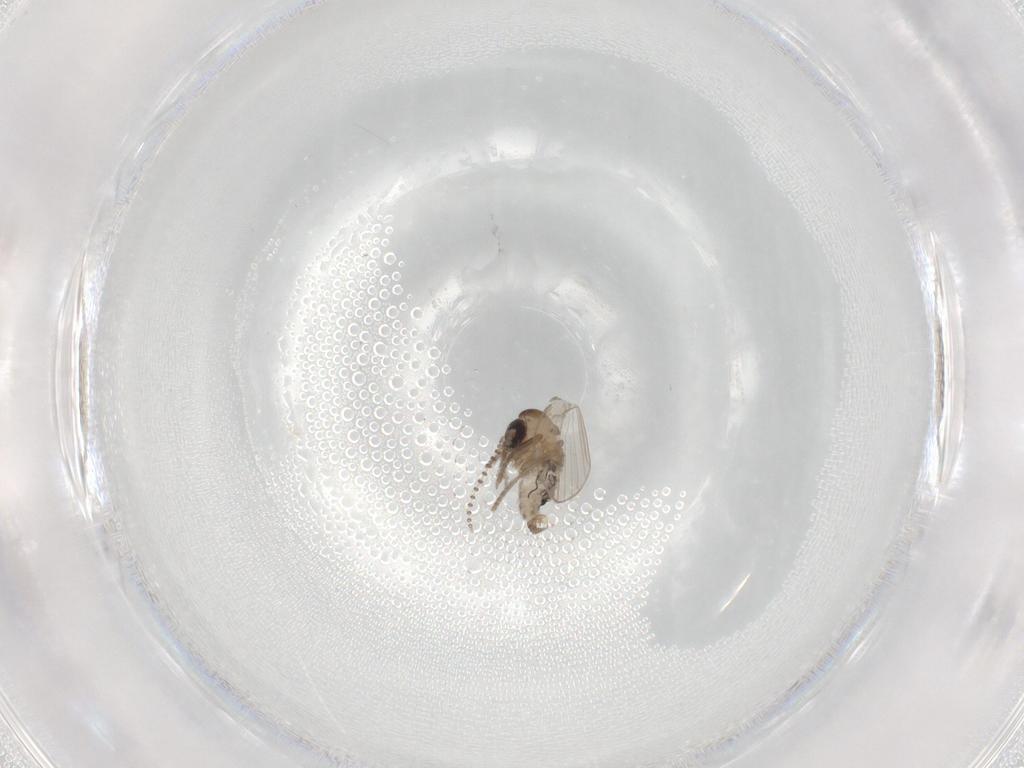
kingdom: Animalia
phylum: Arthropoda
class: Insecta
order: Diptera
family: Psychodidae
